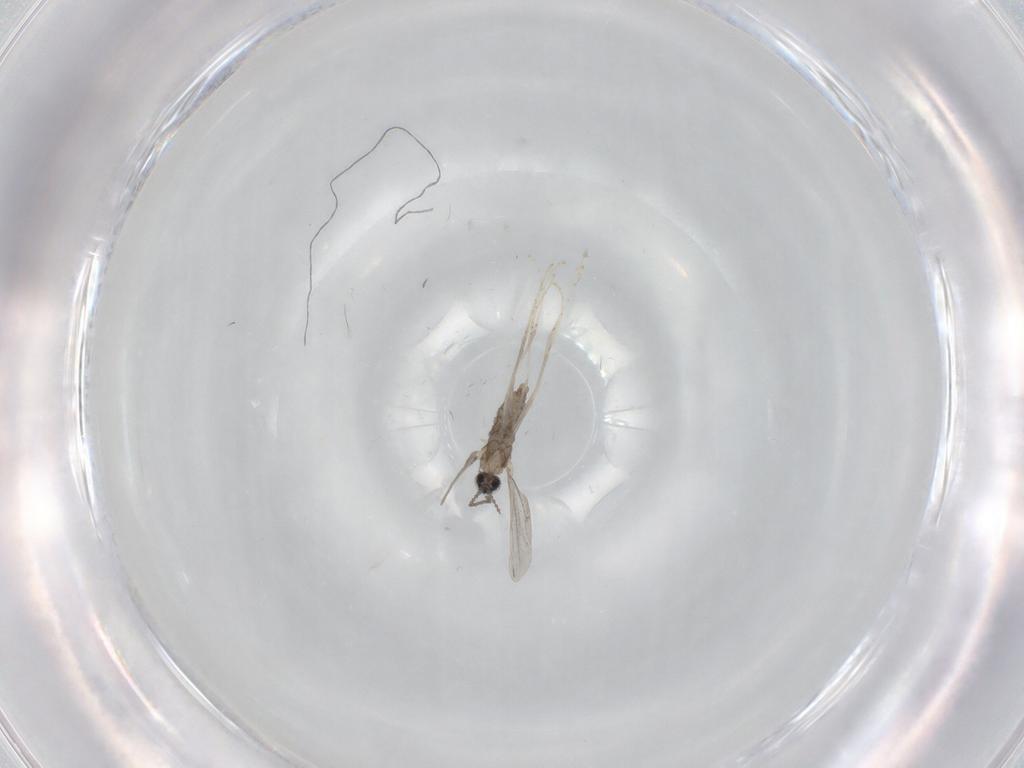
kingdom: Animalia
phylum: Arthropoda
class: Insecta
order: Diptera
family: Cecidomyiidae
